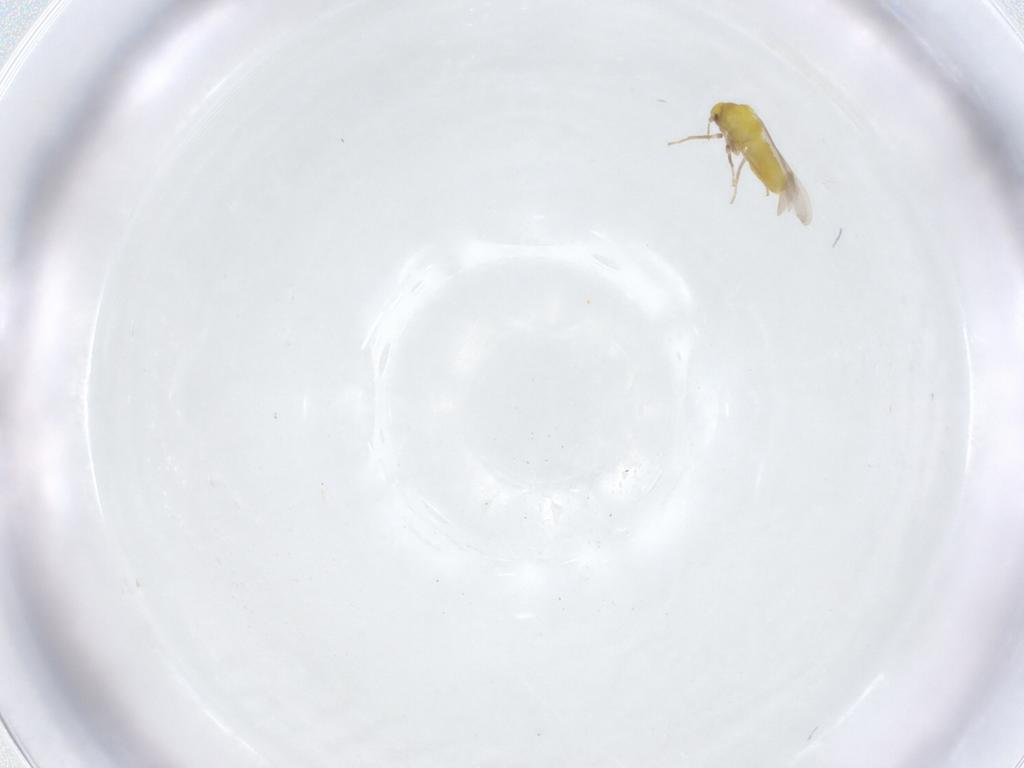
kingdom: Animalia
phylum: Arthropoda
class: Insecta
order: Hemiptera
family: Aleyrodidae
